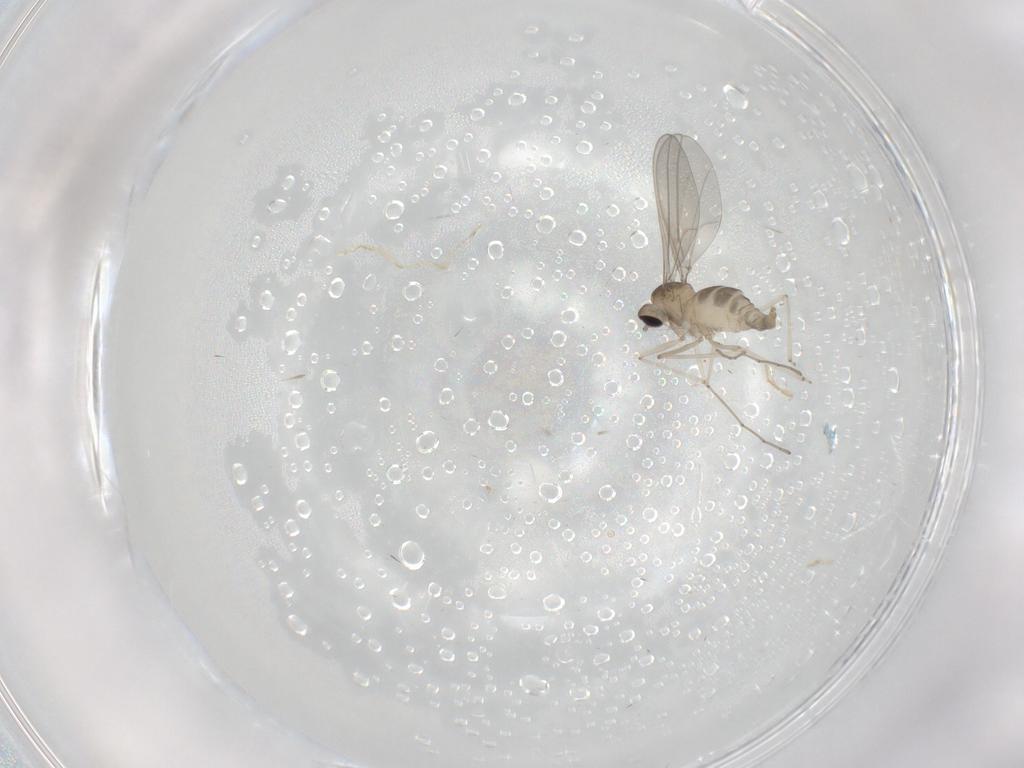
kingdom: Animalia
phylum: Arthropoda
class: Insecta
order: Diptera
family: Cecidomyiidae
